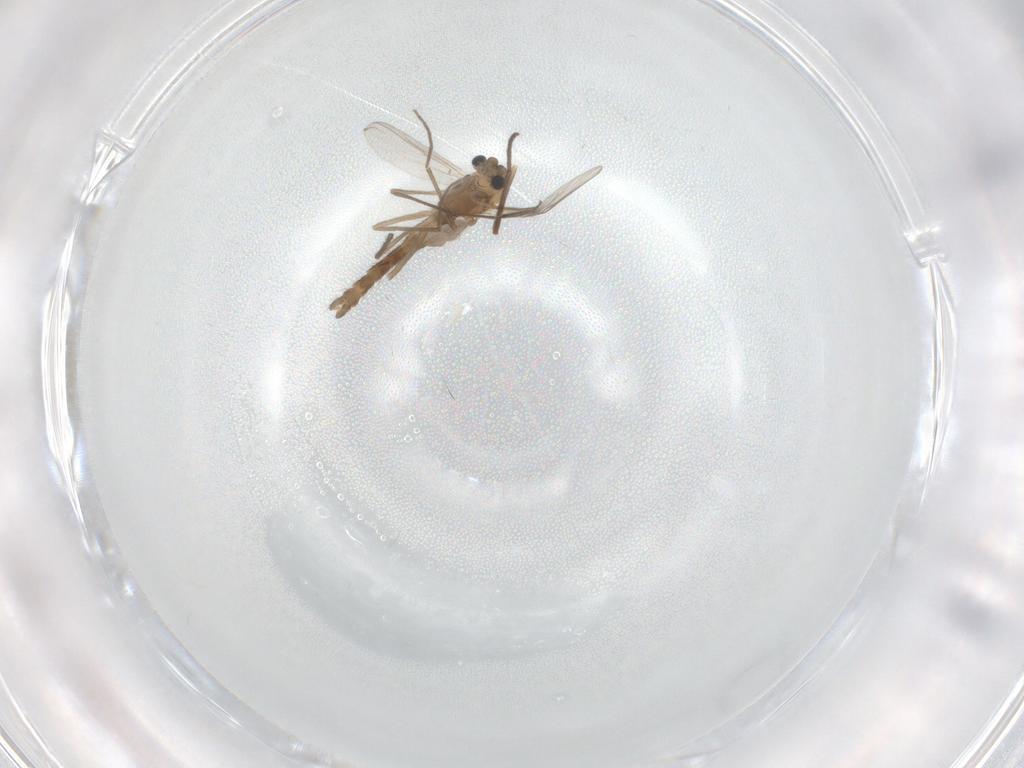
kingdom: Animalia
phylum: Arthropoda
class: Insecta
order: Diptera
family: Chironomidae
